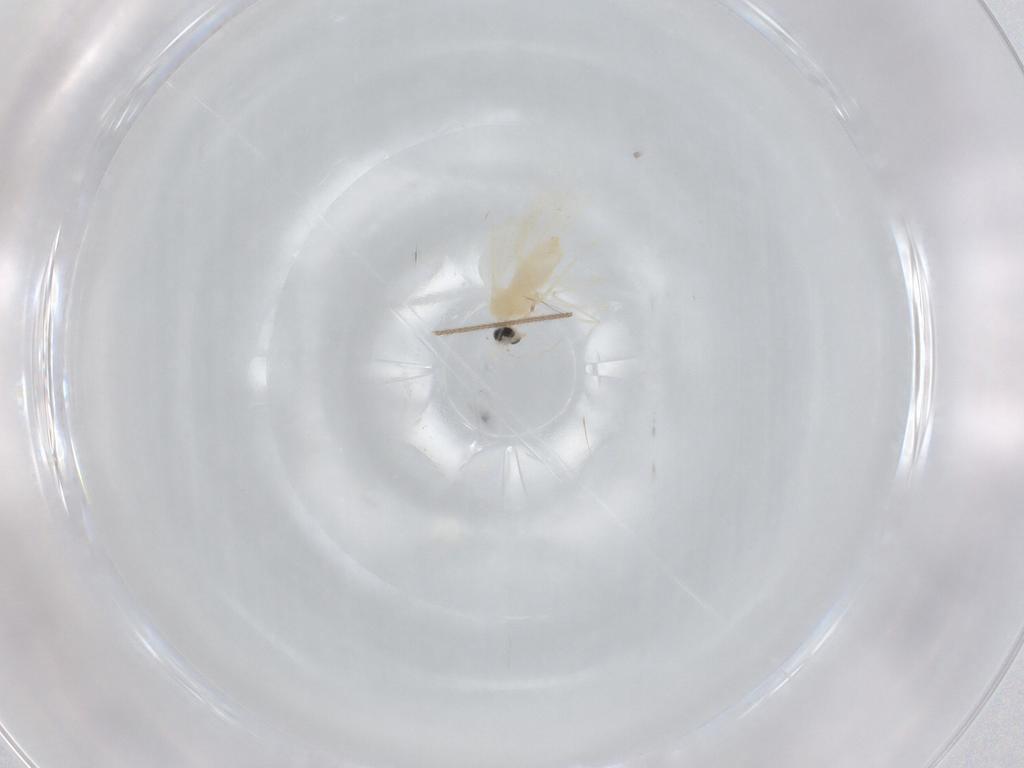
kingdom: Animalia
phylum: Arthropoda
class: Insecta
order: Diptera
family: Cecidomyiidae
